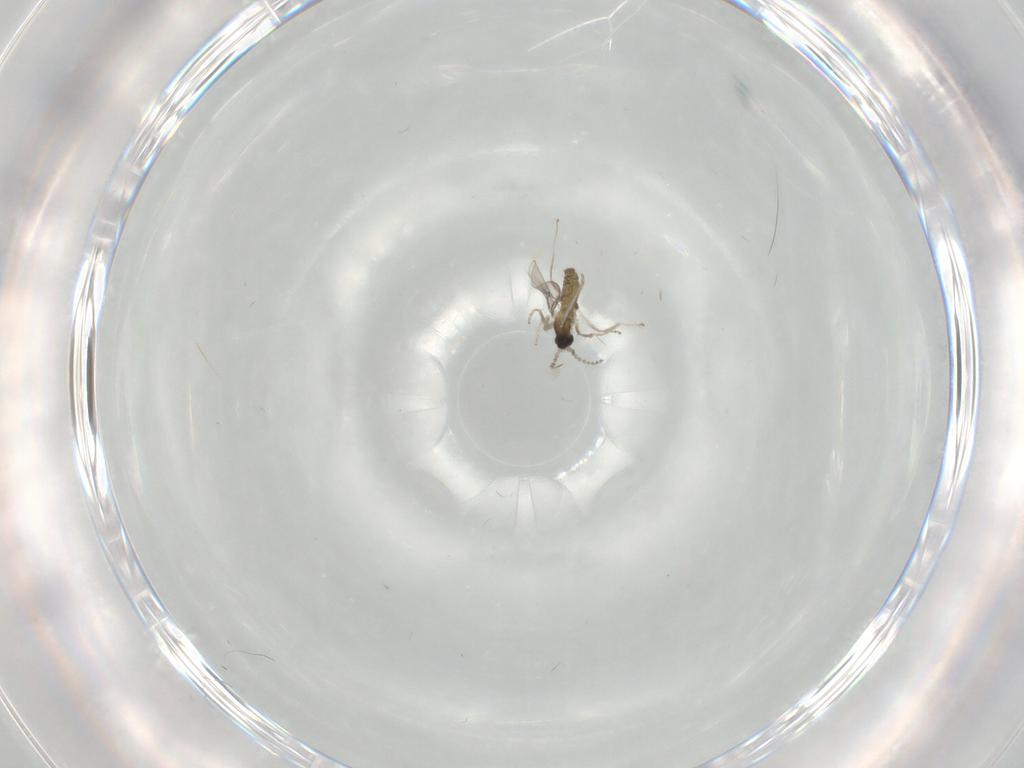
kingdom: Animalia
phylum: Arthropoda
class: Insecta
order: Diptera
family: Cecidomyiidae
